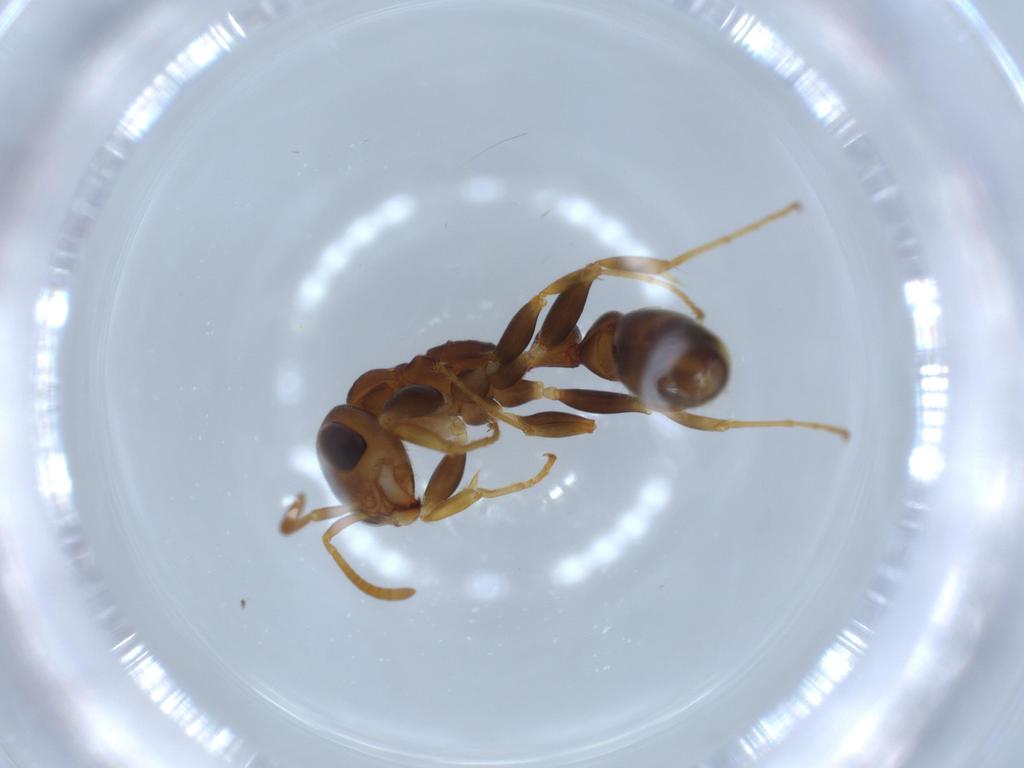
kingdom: Animalia
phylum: Arthropoda
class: Insecta
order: Hymenoptera
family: Formicidae
